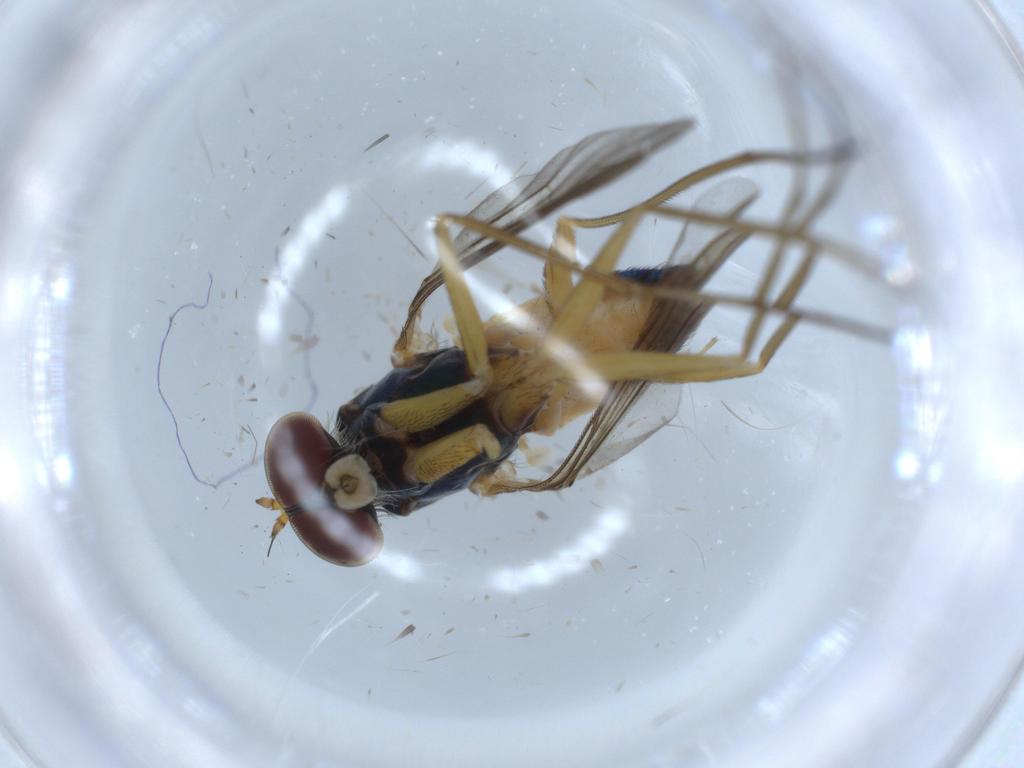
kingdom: Animalia
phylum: Arthropoda
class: Insecta
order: Diptera
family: Dolichopodidae
